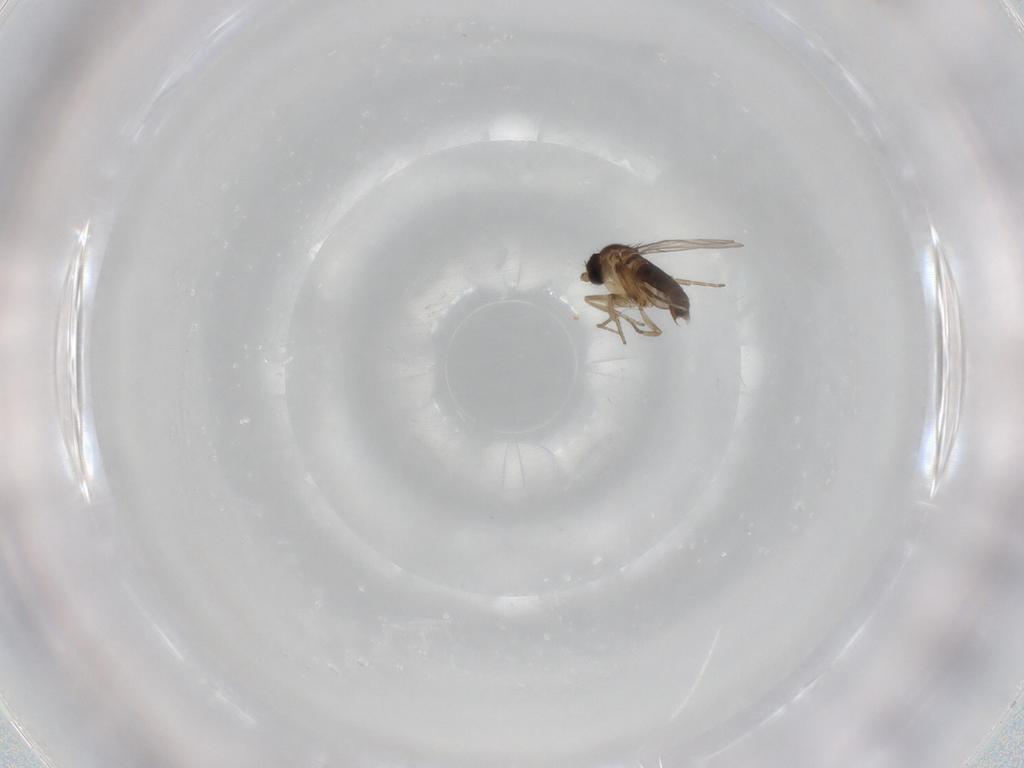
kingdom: Animalia
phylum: Arthropoda
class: Insecta
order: Diptera
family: Phoridae
